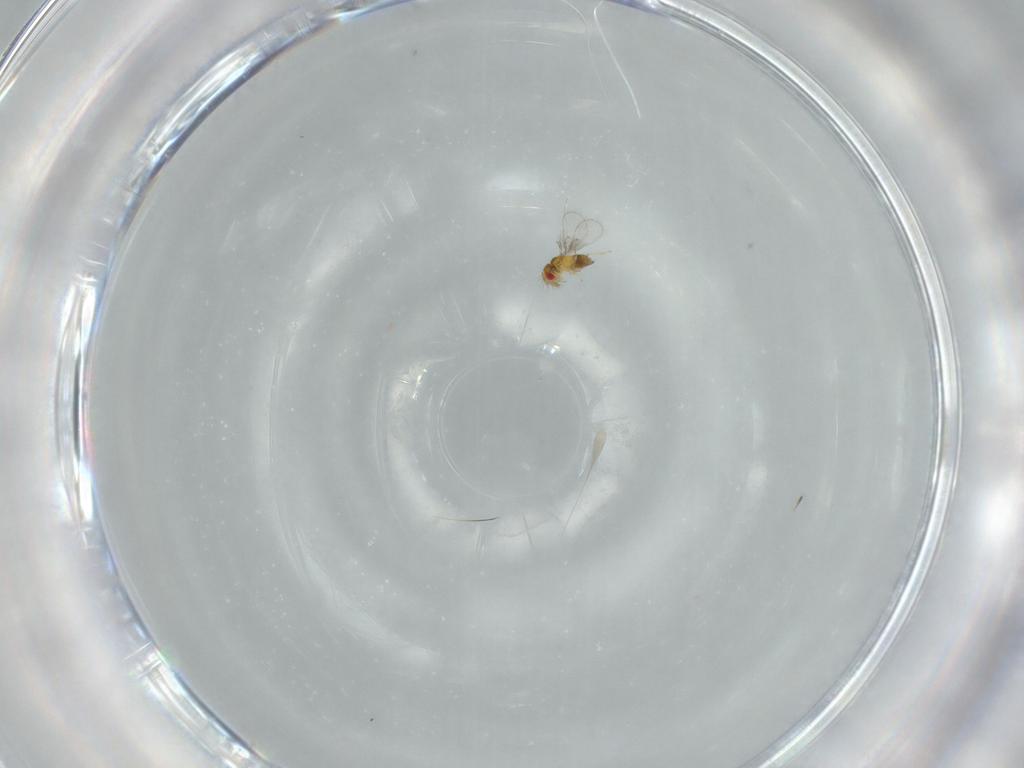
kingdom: Animalia
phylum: Arthropoda
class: Insecta
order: Hymenoptera
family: Trichogrammatidae
